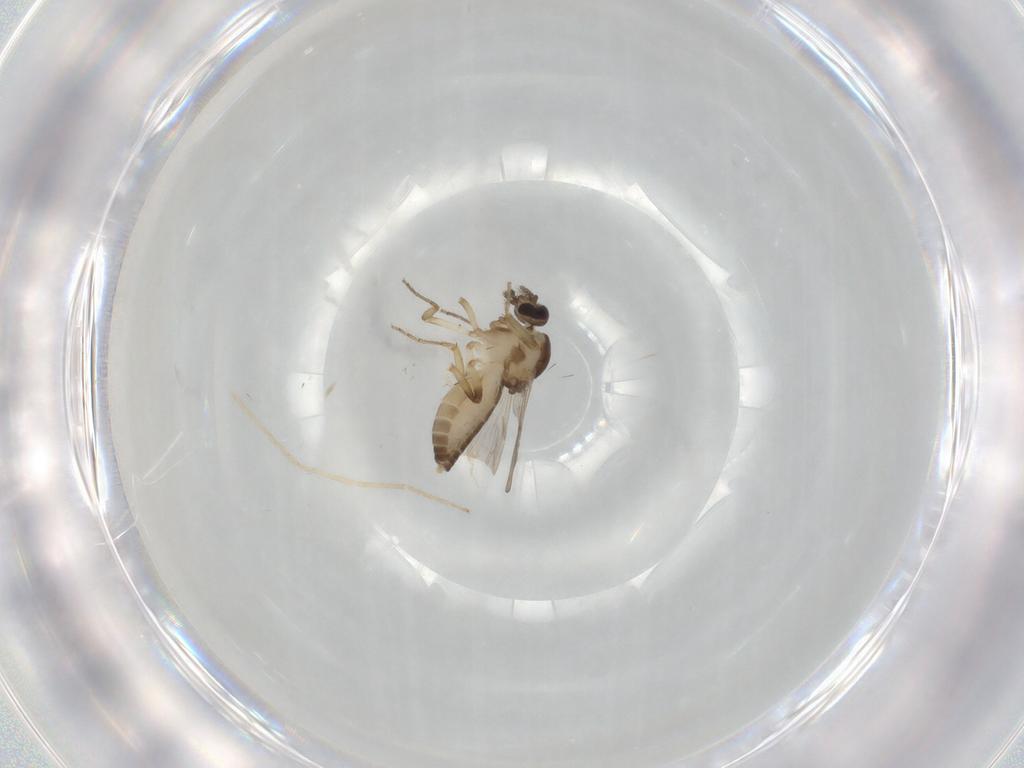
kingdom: Animalia
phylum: Arthropoda
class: Insecta
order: Diptera
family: Ceratopogonidae
